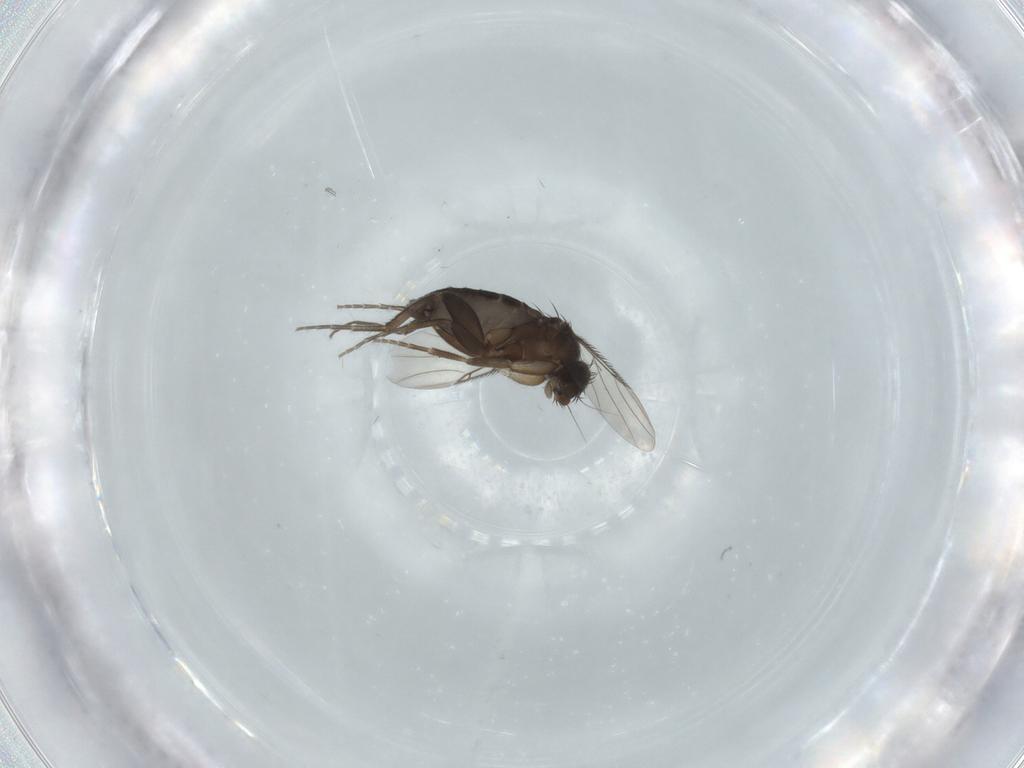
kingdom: Animalia
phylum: Arthropoda
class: Insecta
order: Diptera
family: Phoridae
